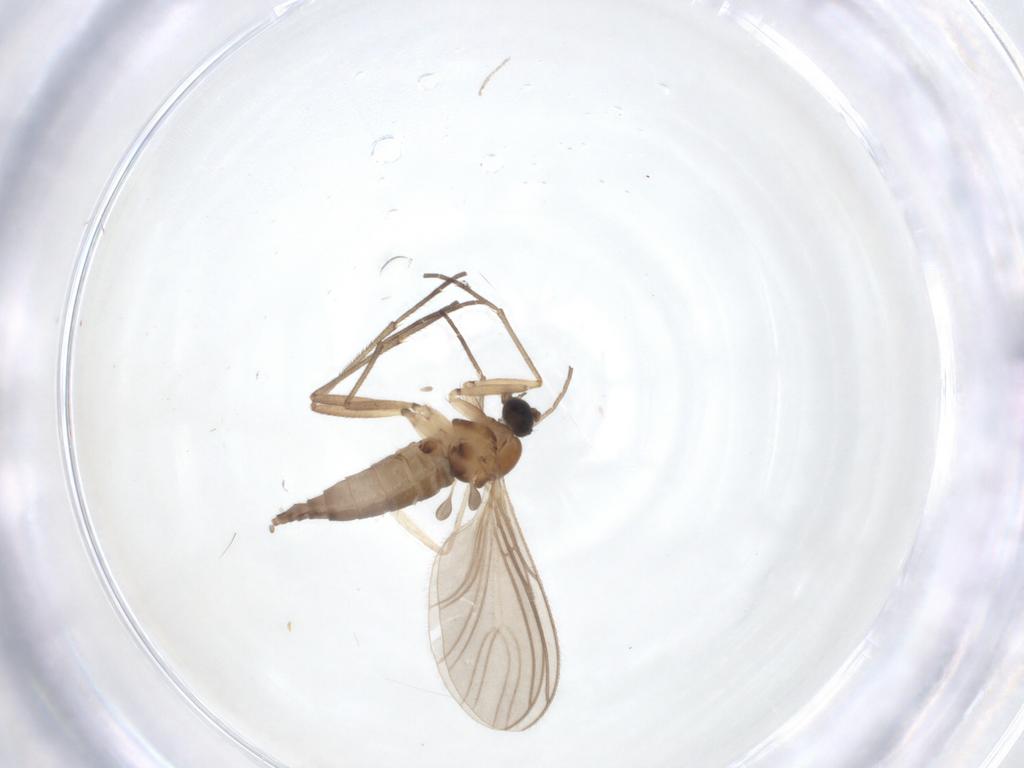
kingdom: Animalia
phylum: Arthropoda
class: Insecta
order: Diptera
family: Sciaridae
